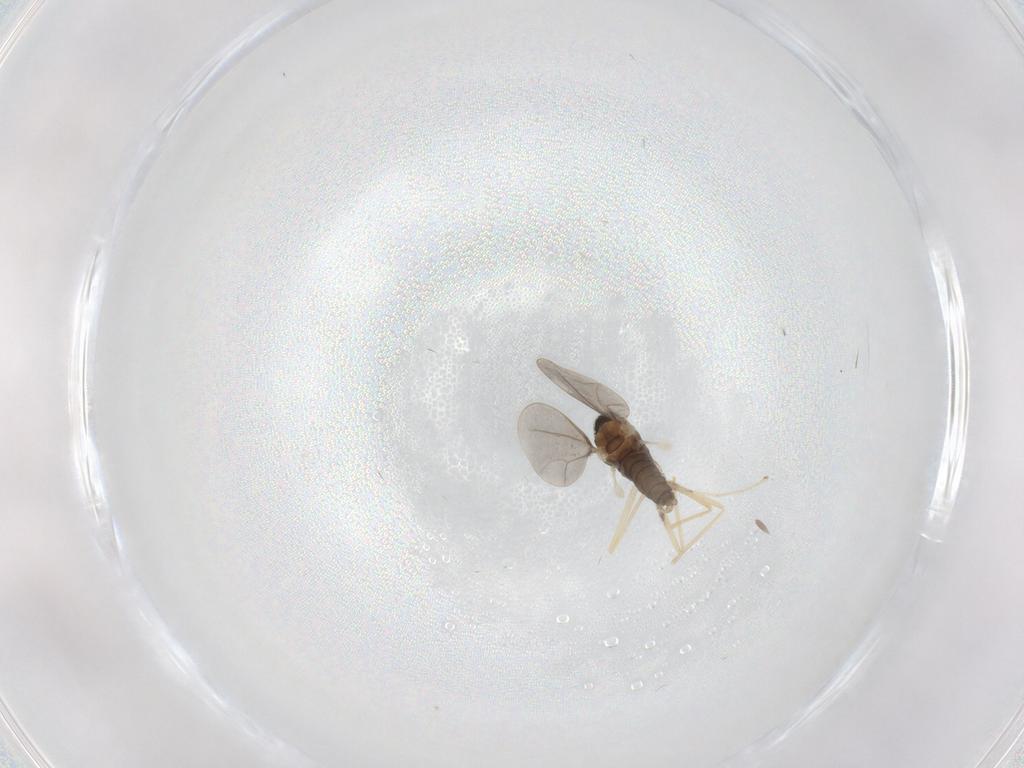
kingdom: Animalia
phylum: Arthropoda
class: Insecta
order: Diptera
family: Cecidomyiidae
